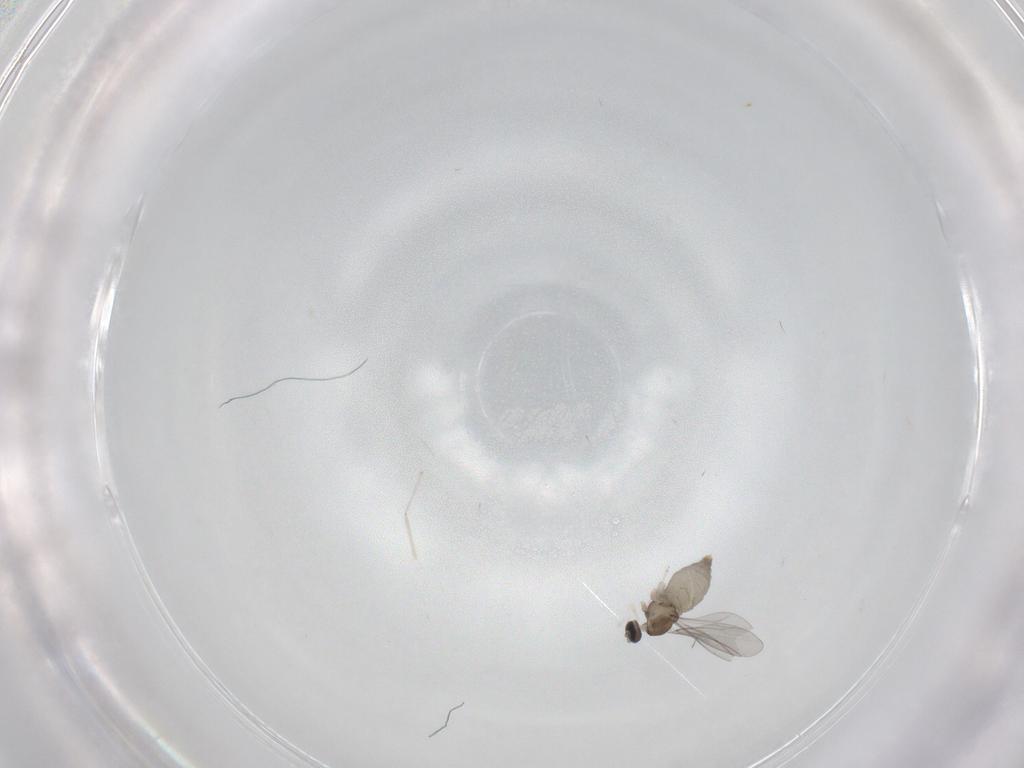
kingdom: Animalia
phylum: Arthropoda
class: Insecta
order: Diptera
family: Cecidomyiidae
